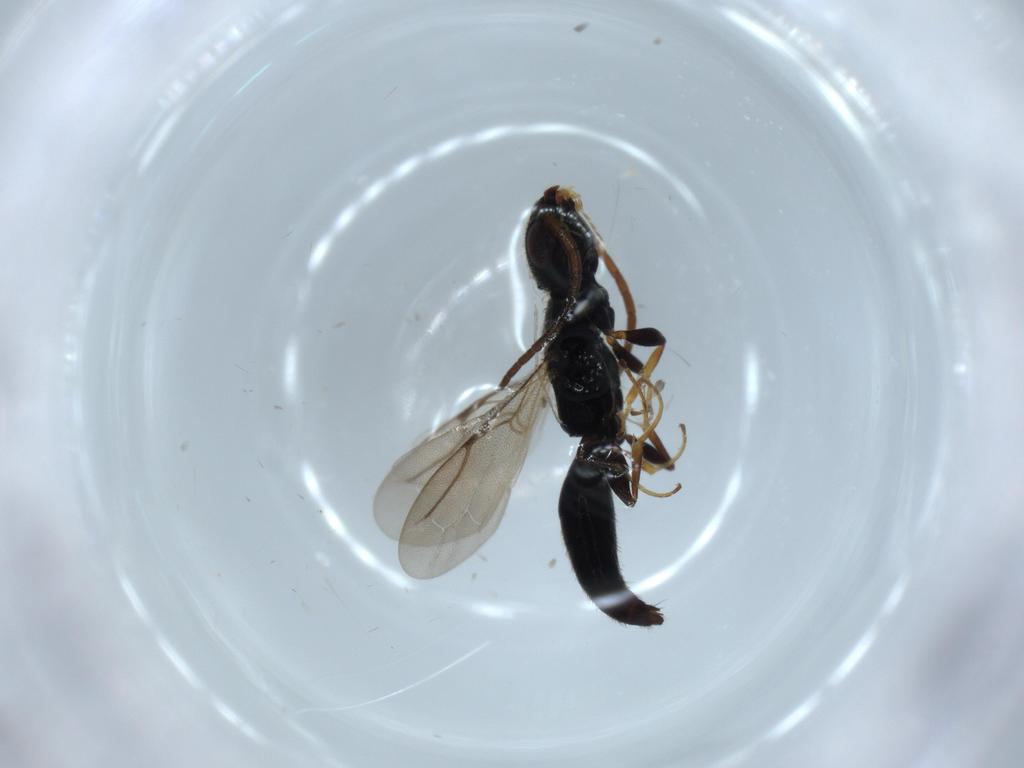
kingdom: Animalia
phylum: Arthropoda
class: Insecta
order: Hymenoptera
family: Bethylidae
